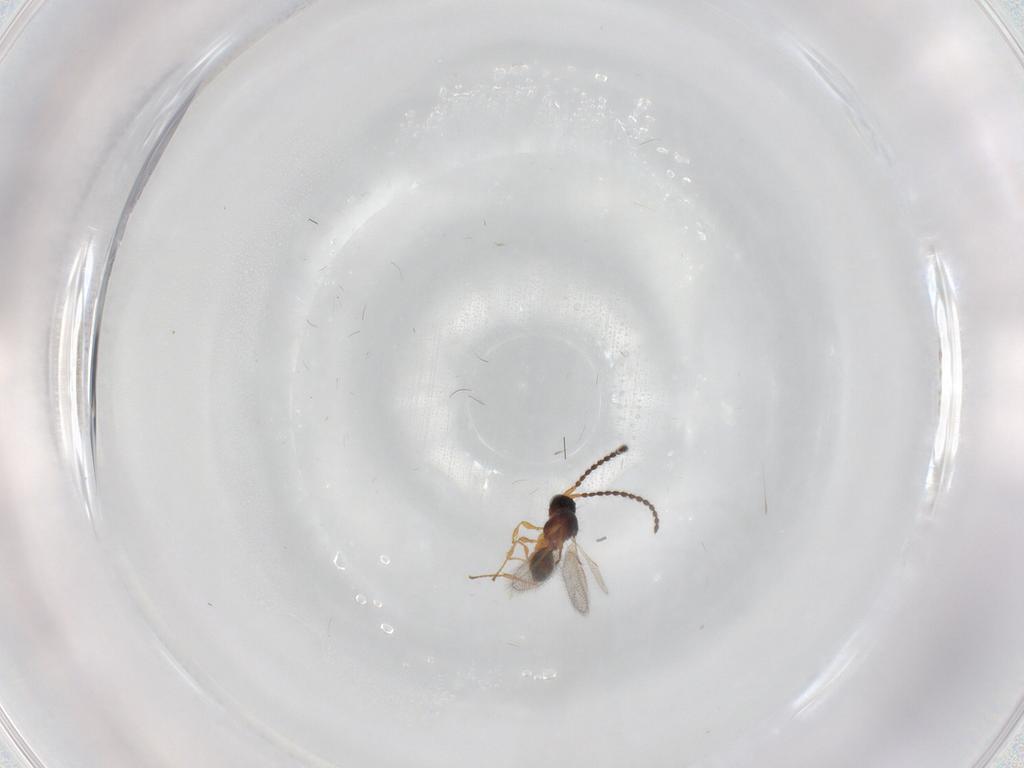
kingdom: Animalia
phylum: Arthropoda
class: Insecta
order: Hymenoptera
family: Diapriidae
